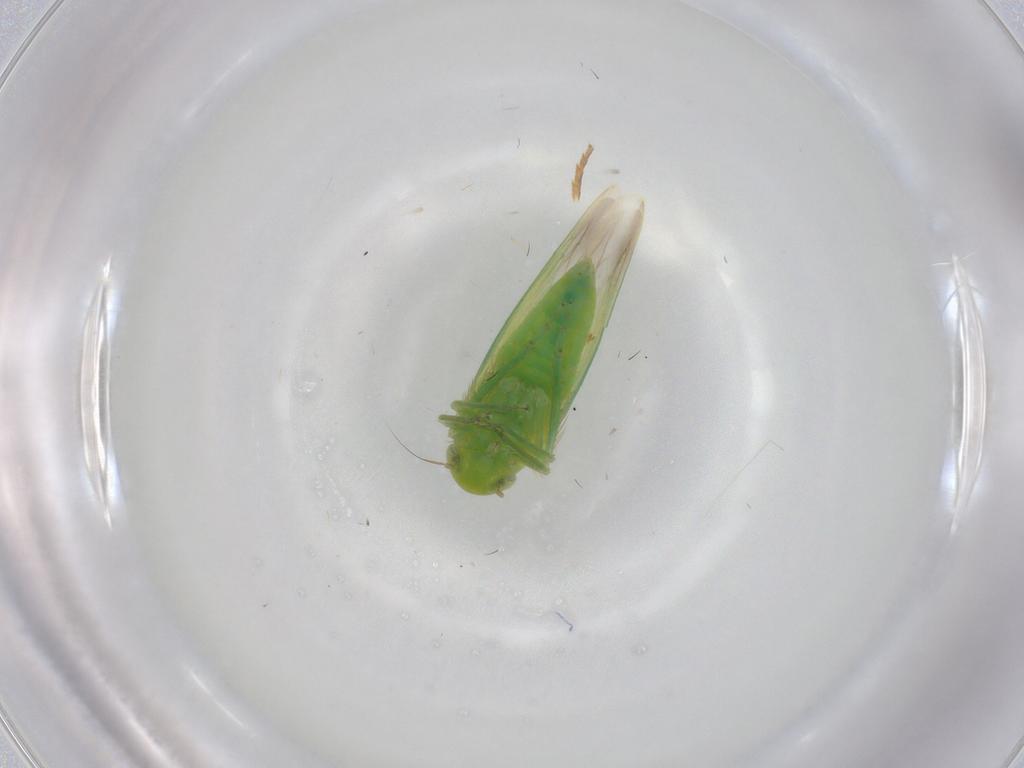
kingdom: Animalia
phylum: Arthropoda
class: Insecta
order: Hemiptera
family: Cicadellidae
